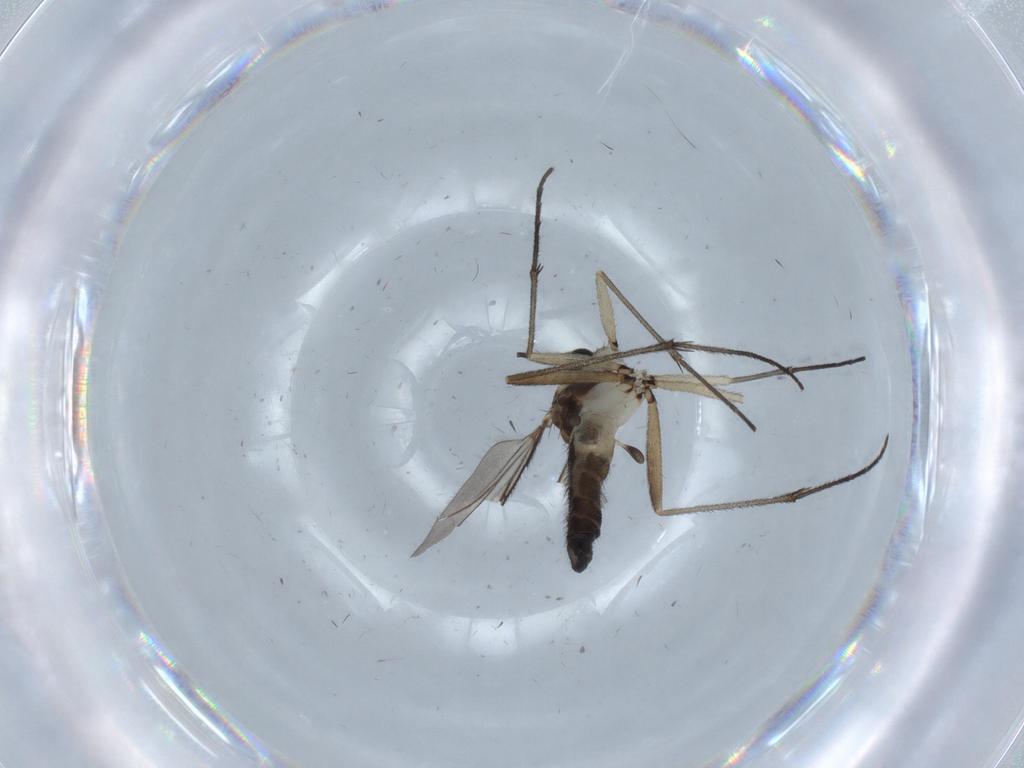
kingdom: Animalia
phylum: Arthropoda
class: Insecta
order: Diptera
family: Sciaridae
